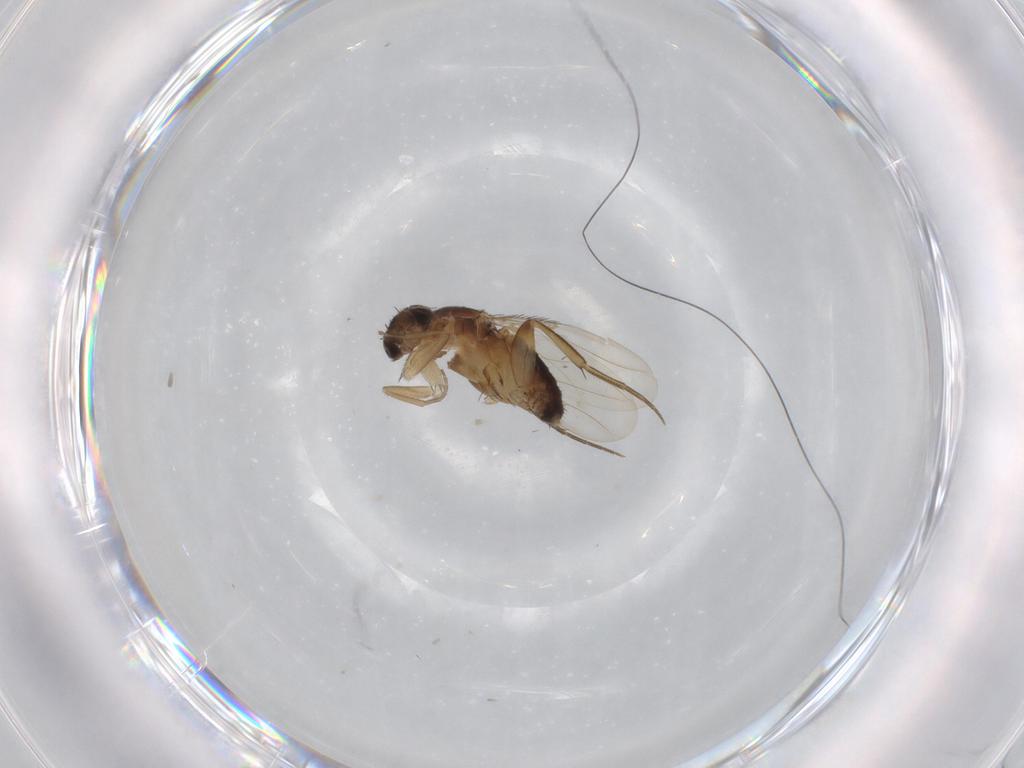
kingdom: Animalia
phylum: Arthropoda
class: Insecta
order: Diptera
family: Phoridae
